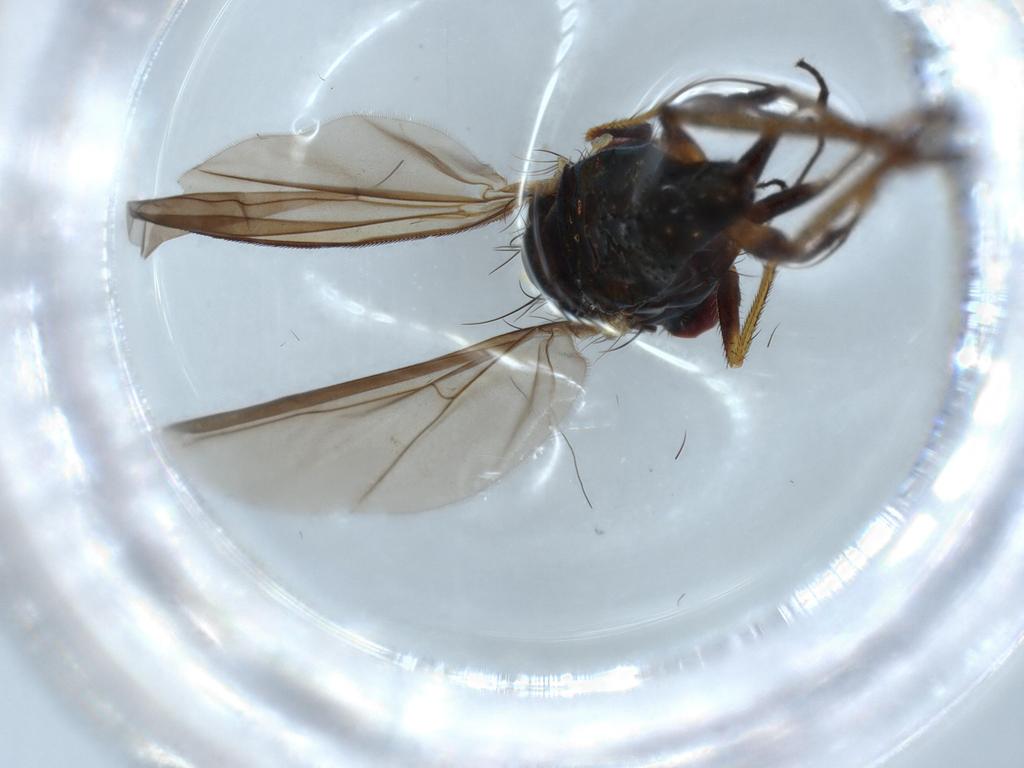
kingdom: Animalia
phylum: Arthropoda
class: Insecta
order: Diptera
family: Dolichopodidae
